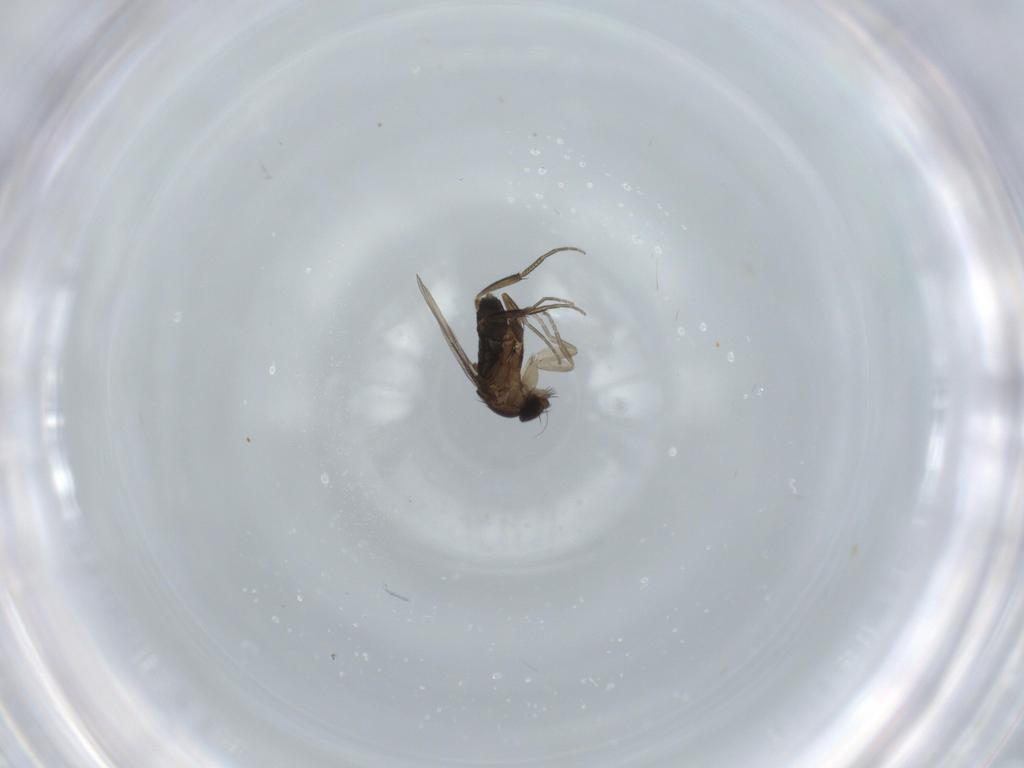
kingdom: Animalia
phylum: Arthropoda
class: Insecta
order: Diptera
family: Phoridae
